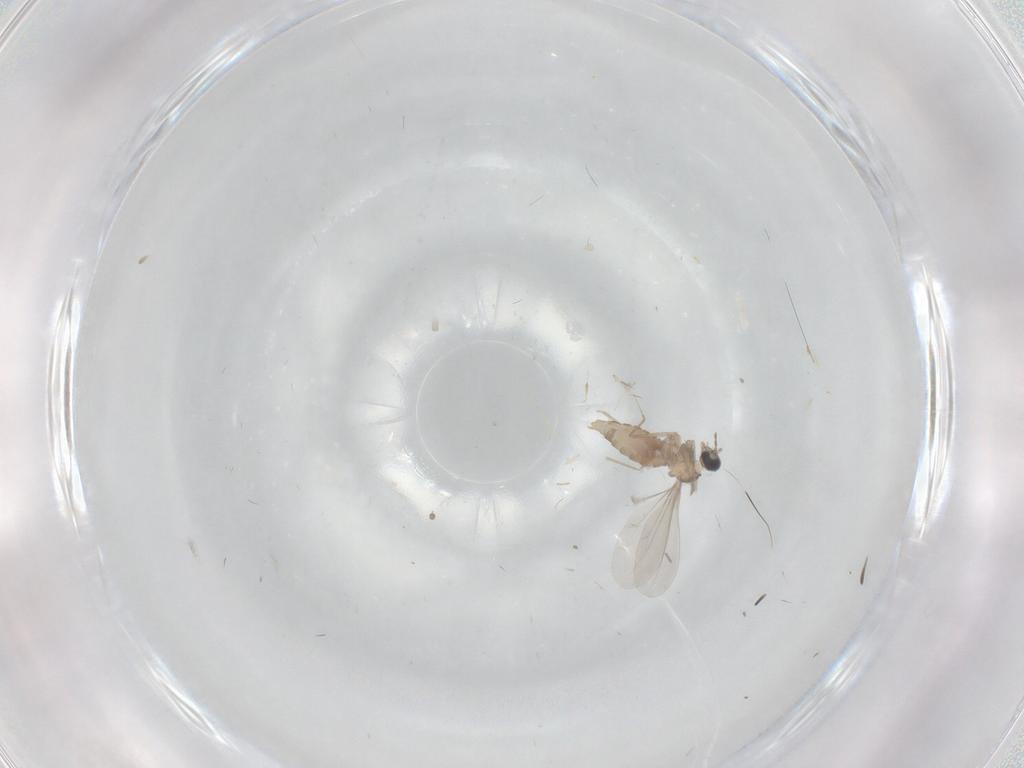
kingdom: Animalia
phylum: Arthropoda
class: Insecta
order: Diptera
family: Cecidomyiidae
